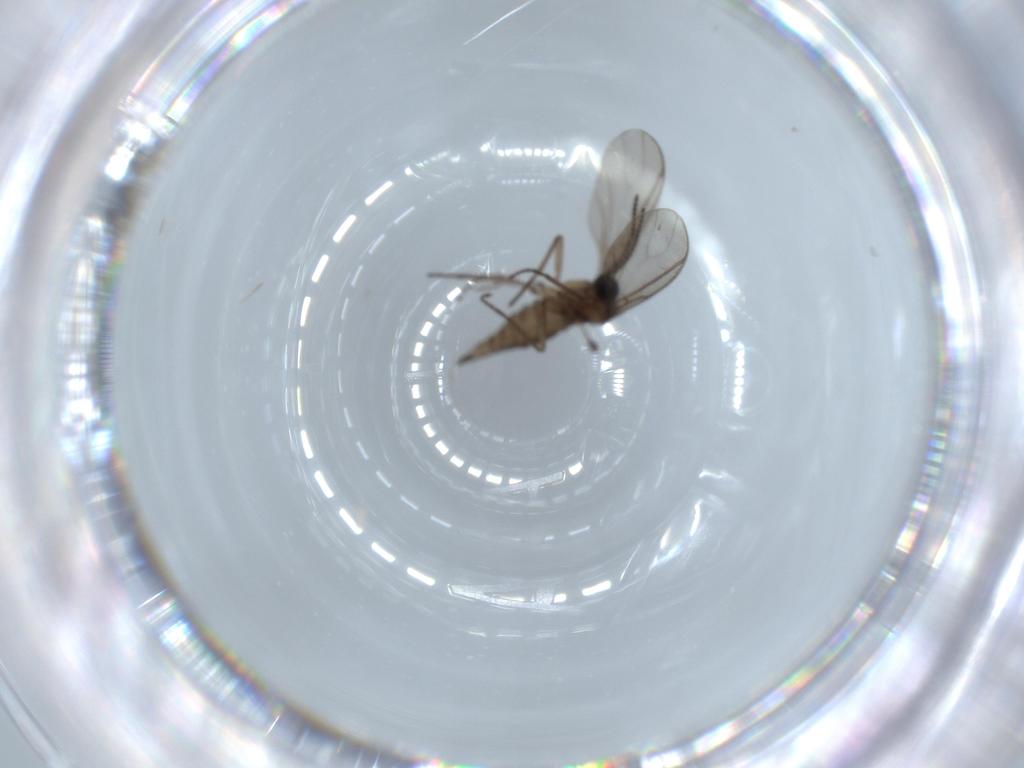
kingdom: Animalia
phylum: Arthropoda
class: Insecta
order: Diptera
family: Sciaridae
